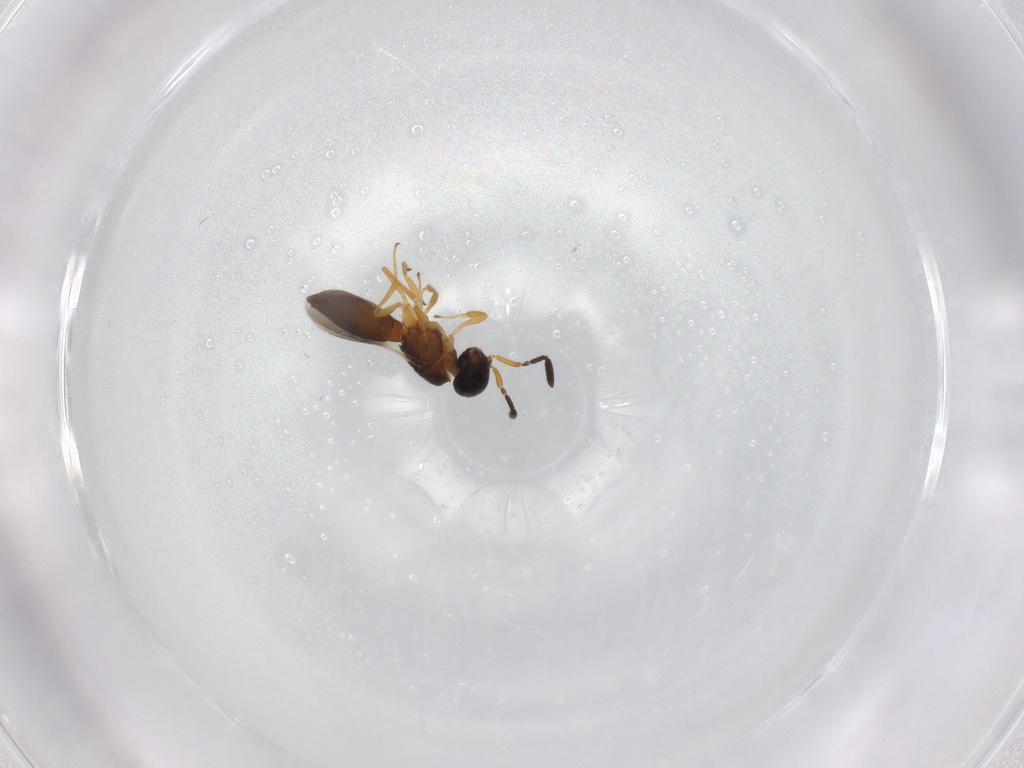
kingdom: Animalia
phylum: Arthropoda
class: Insecta
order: Hymenoptera
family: Scelionidae
